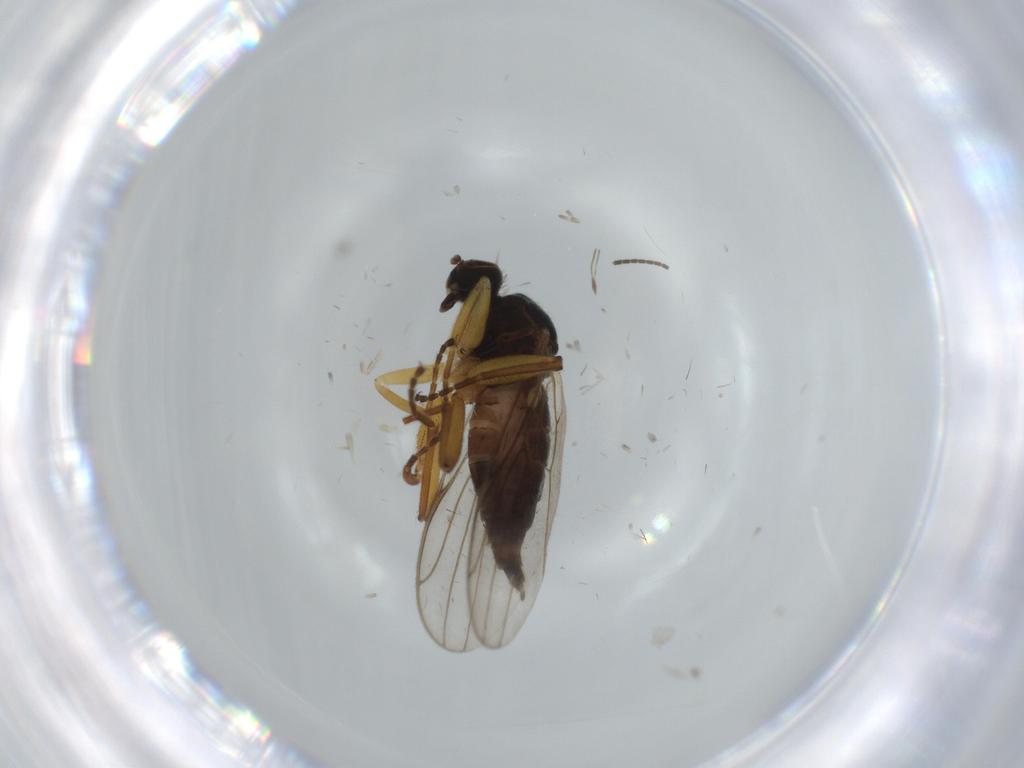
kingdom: Animalia
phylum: Arthropoda
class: Insecta
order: Diptera
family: Hybotidae
